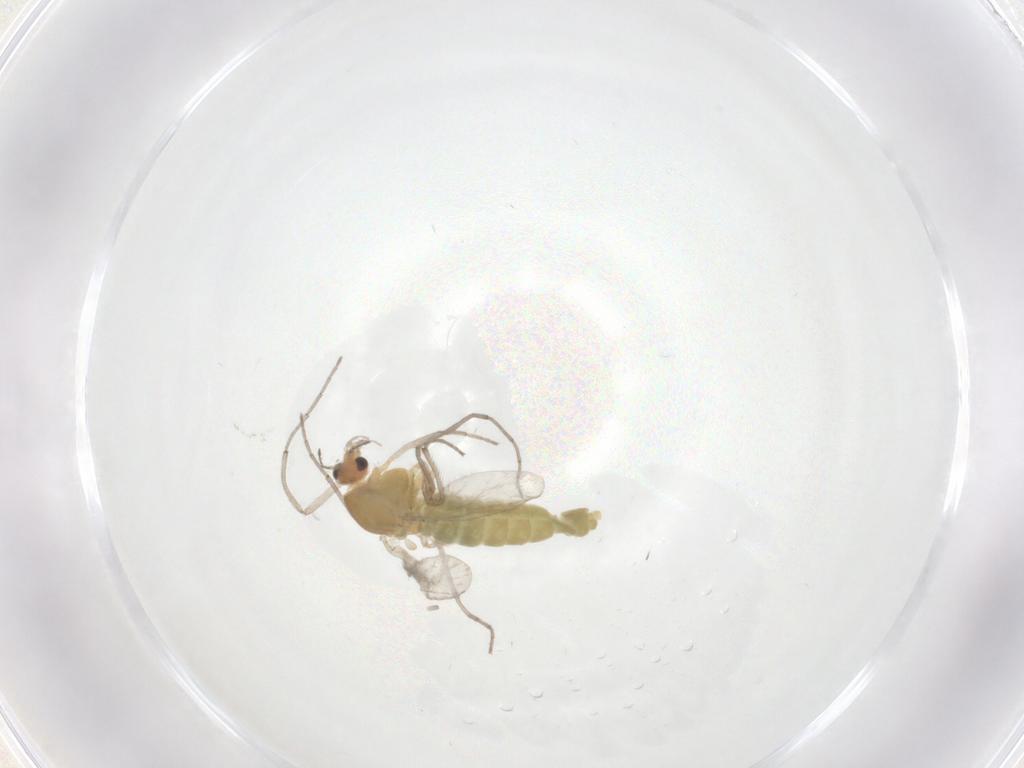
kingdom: Animalia
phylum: Arthropoda
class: Insecta
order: Diptera
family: Chironomidae
